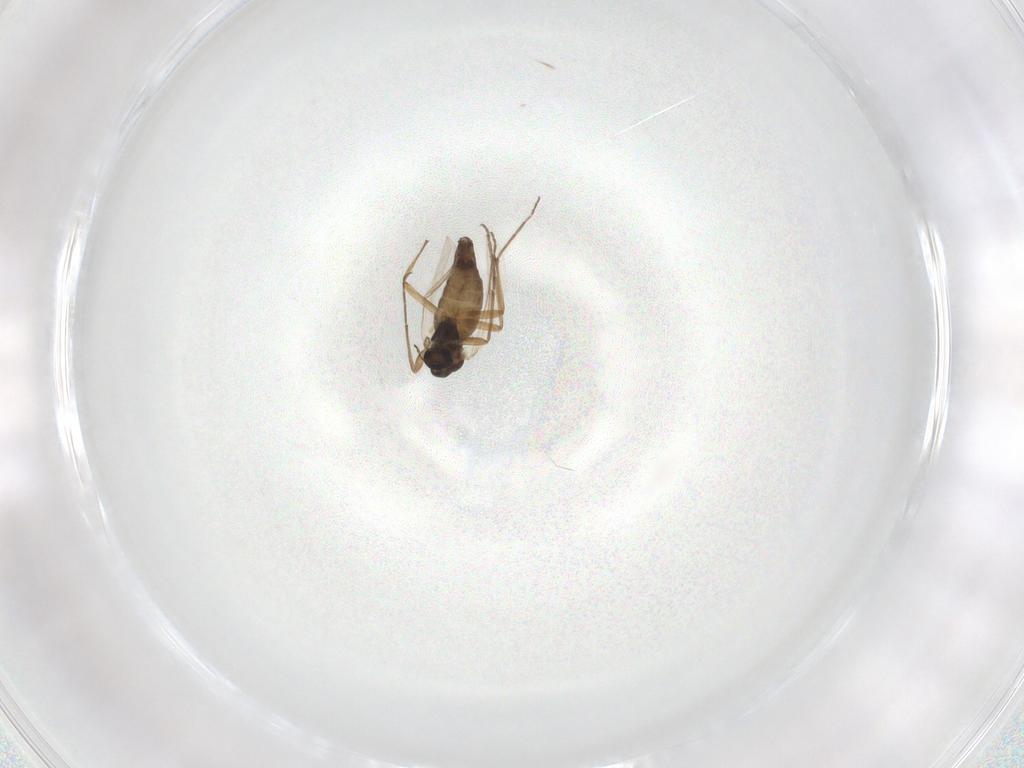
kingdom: Animalia
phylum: Arthropoda
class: Insecta
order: Diptera
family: Chironomidae
